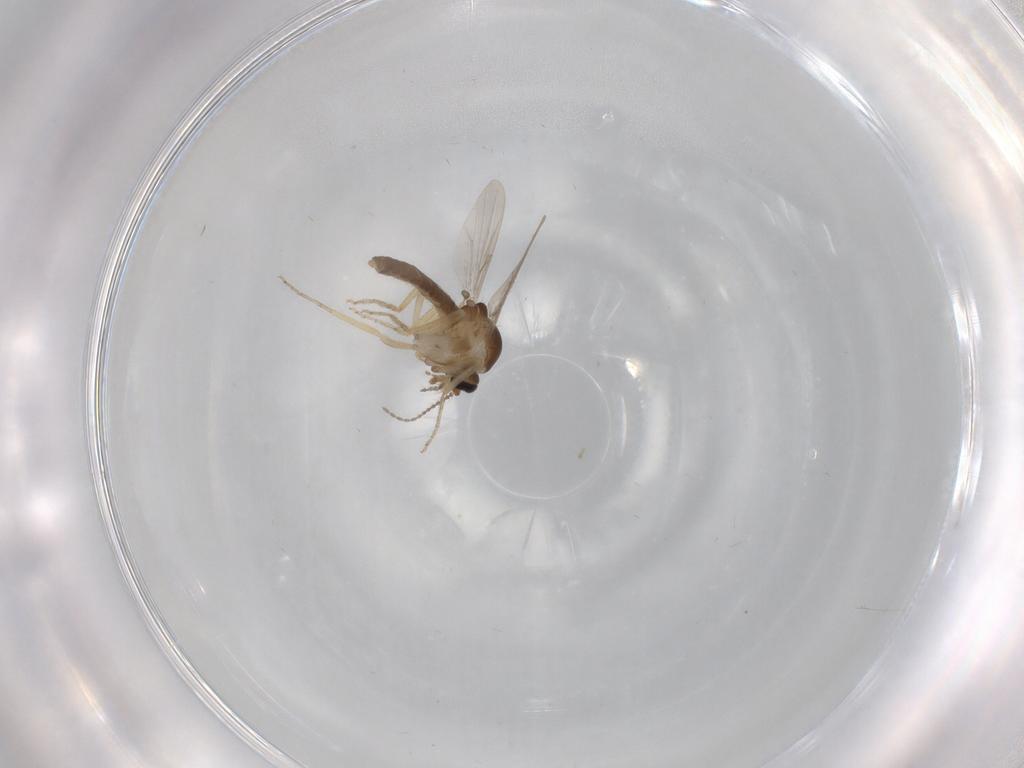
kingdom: Animalia
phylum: Arthropoda
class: Insecta
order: Diptera
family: Ceratopogonidae
